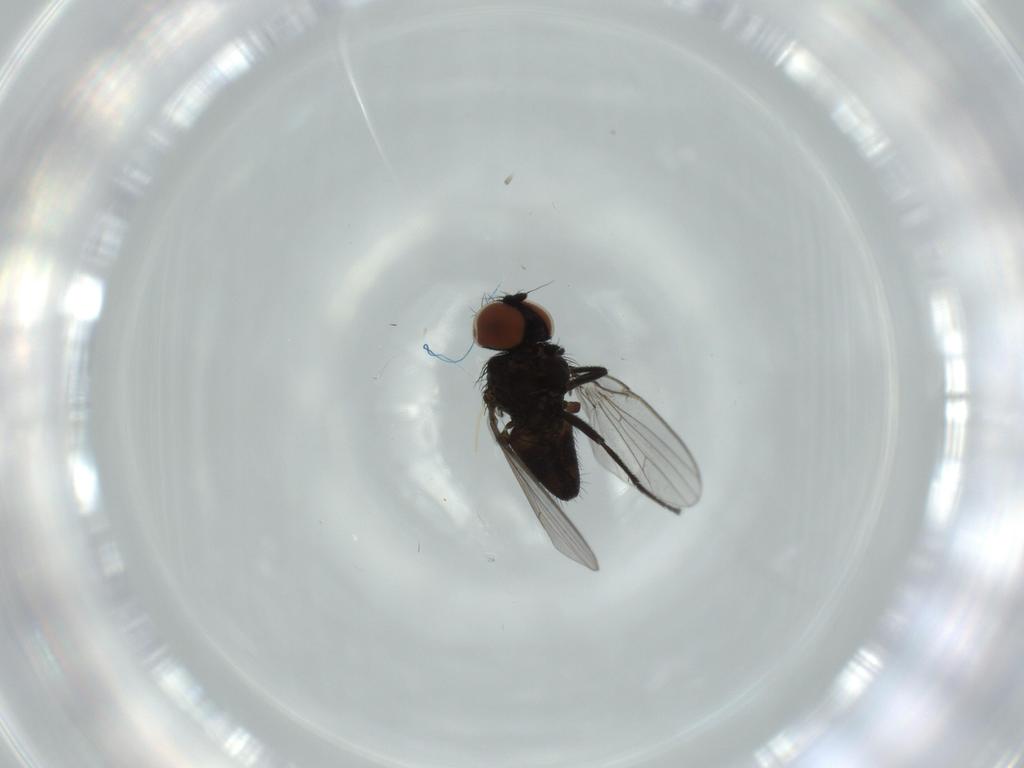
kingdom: Animalia
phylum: Arthropoda
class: Insecta
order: Diptera
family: Milichiidae
